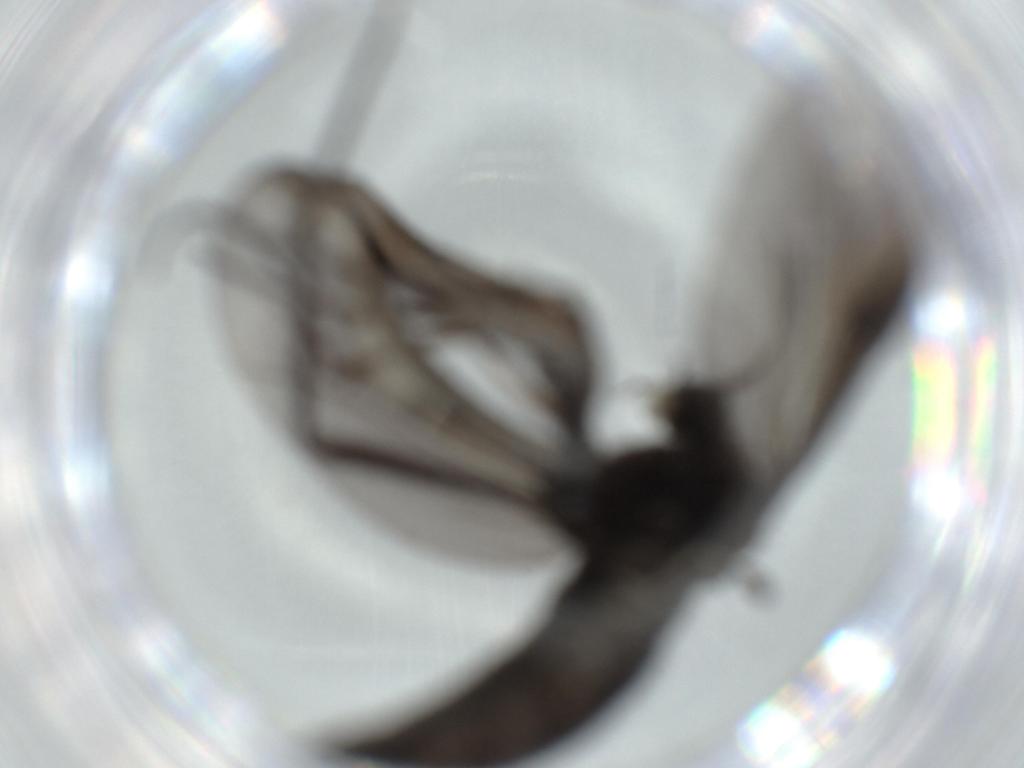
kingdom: Animalia
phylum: Arthropoda
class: Insecta
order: Diptera
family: Sciaridae
